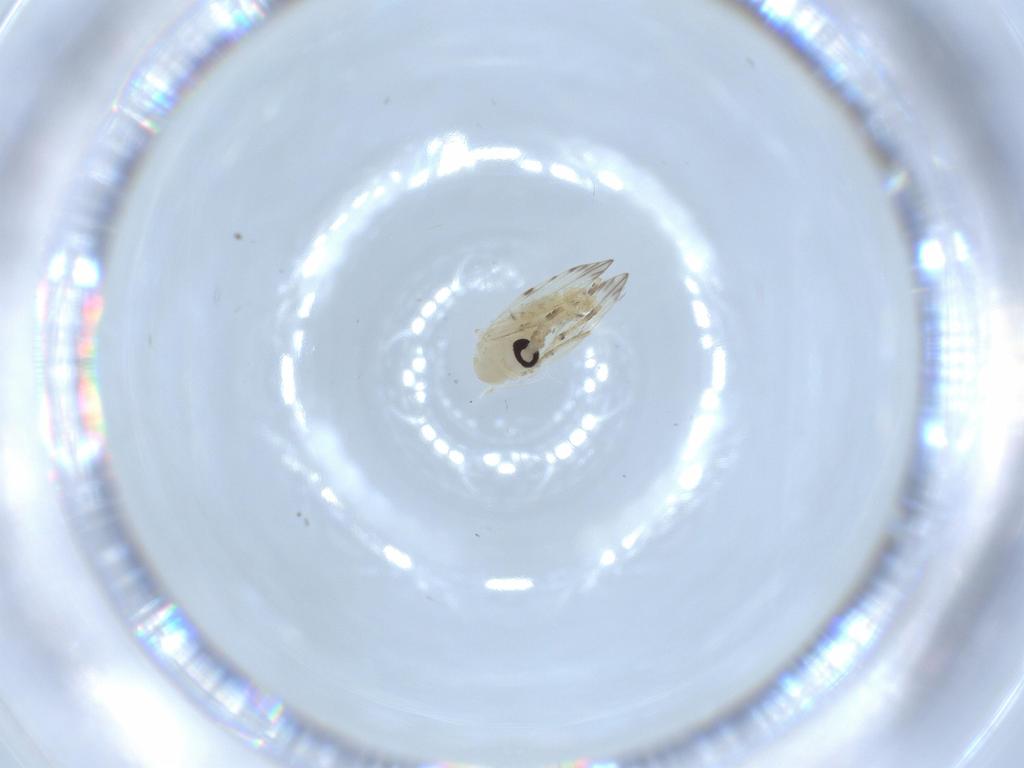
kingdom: Animalia
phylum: Arthropoda
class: Insecta
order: Diptera
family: Psychodidae
